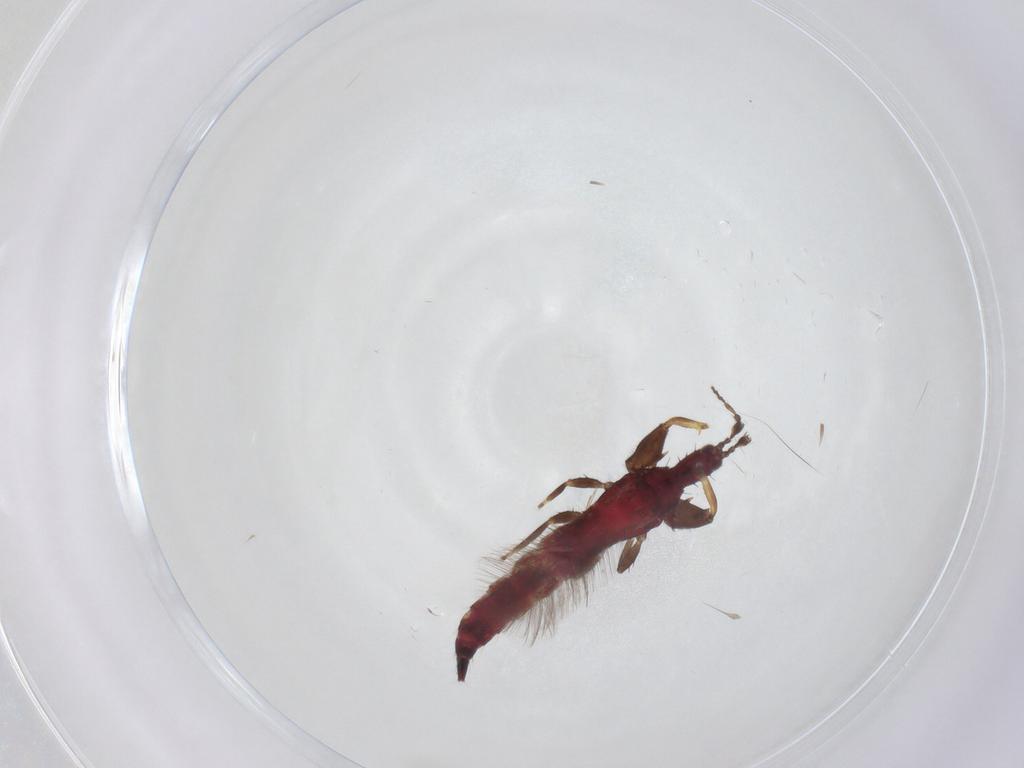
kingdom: Animalia
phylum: Arthropoda
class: Insecta
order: Thysanoptera
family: Phlaeothripidae
